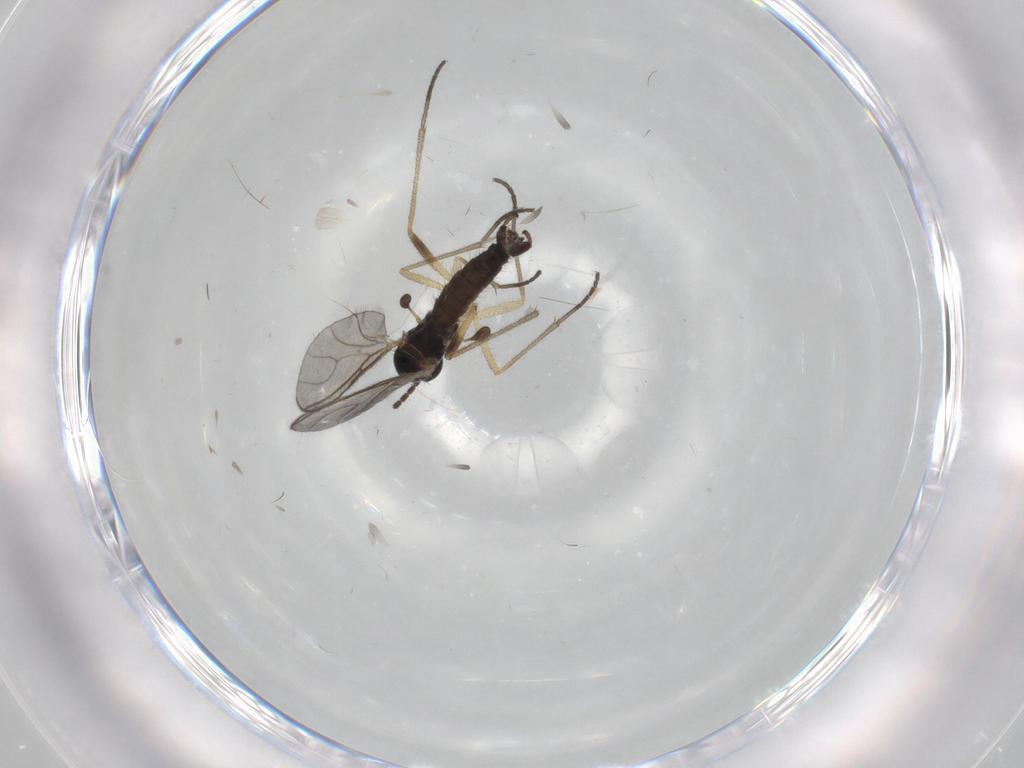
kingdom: Animalia
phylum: Arthropoda
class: Insecta
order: Diptera
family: Sciaridae
